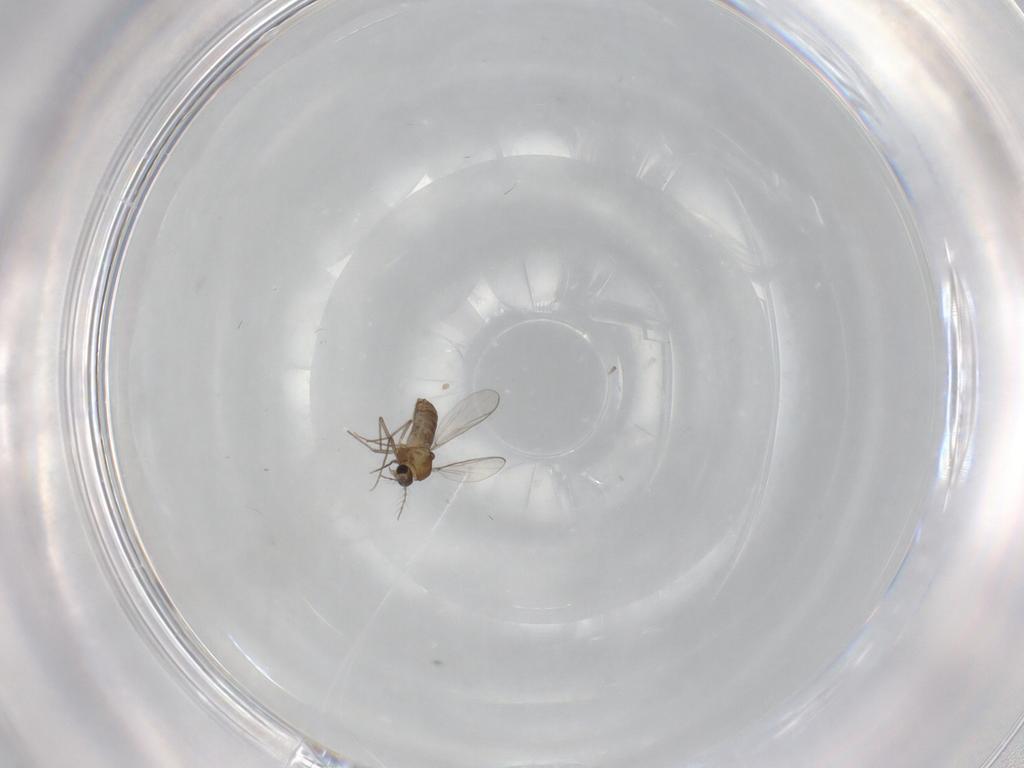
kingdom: Animalia
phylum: Arthropoda
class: Insecta
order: Diptera
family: Chironomidae
